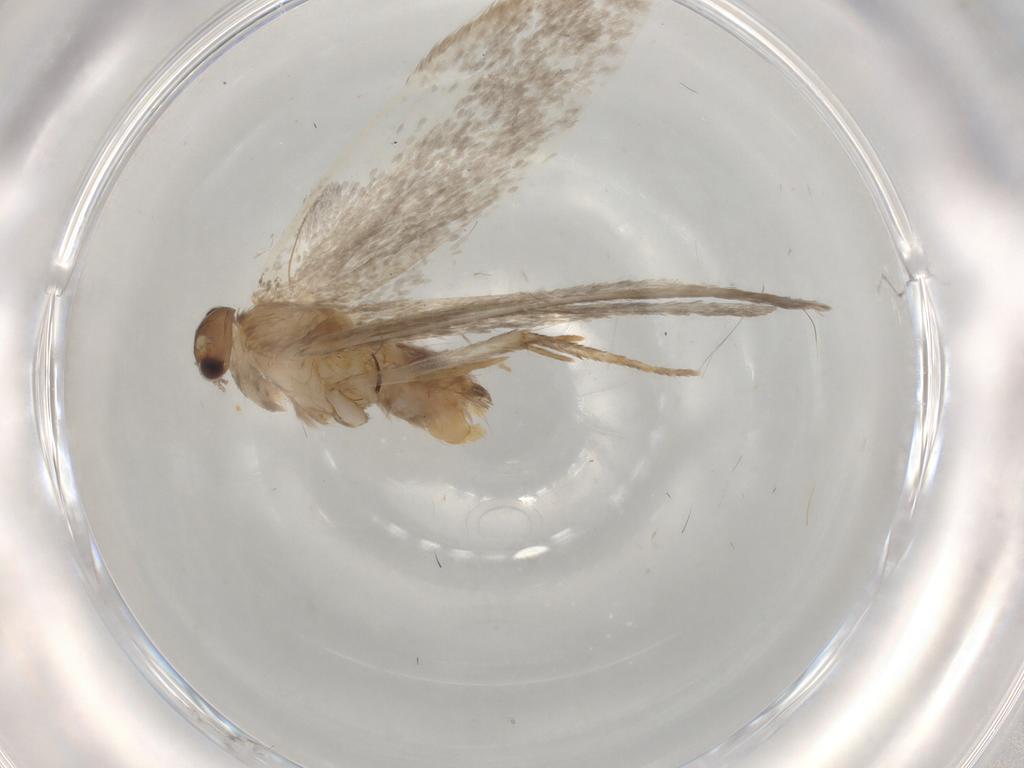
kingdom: Animalia
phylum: Arthropoda
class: Insecta
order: Lepidoptera
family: Dryadaulidae
